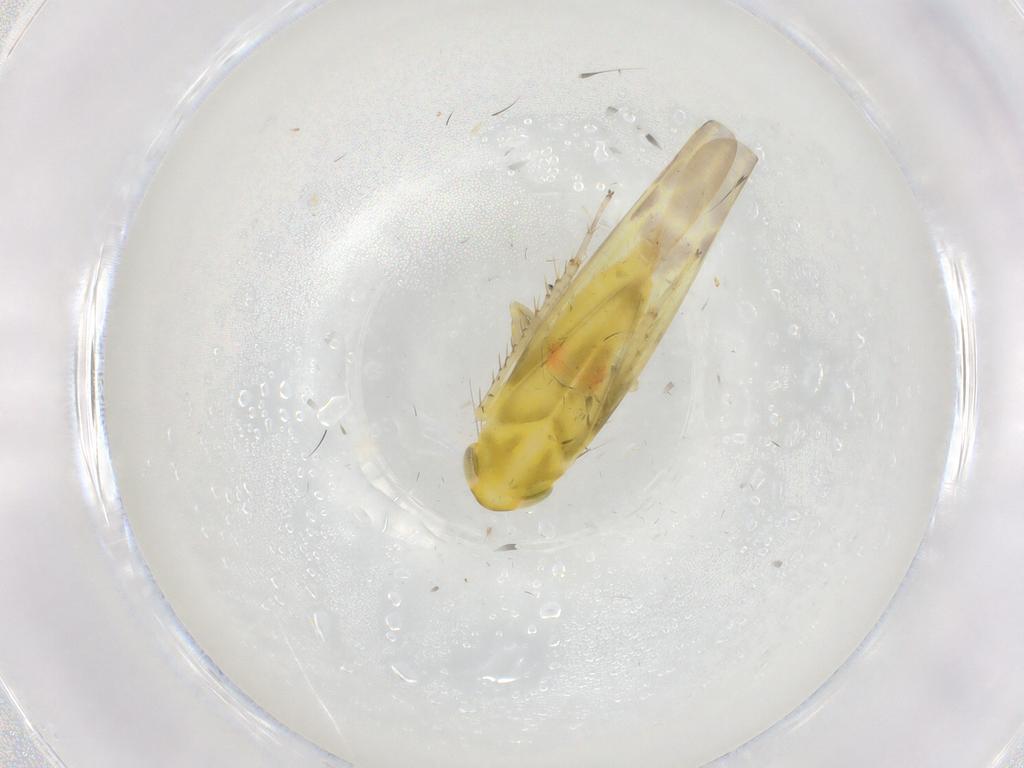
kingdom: Animalia
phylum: Arthropoda
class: Insecta
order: Hemiptera
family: Cicadellidae
